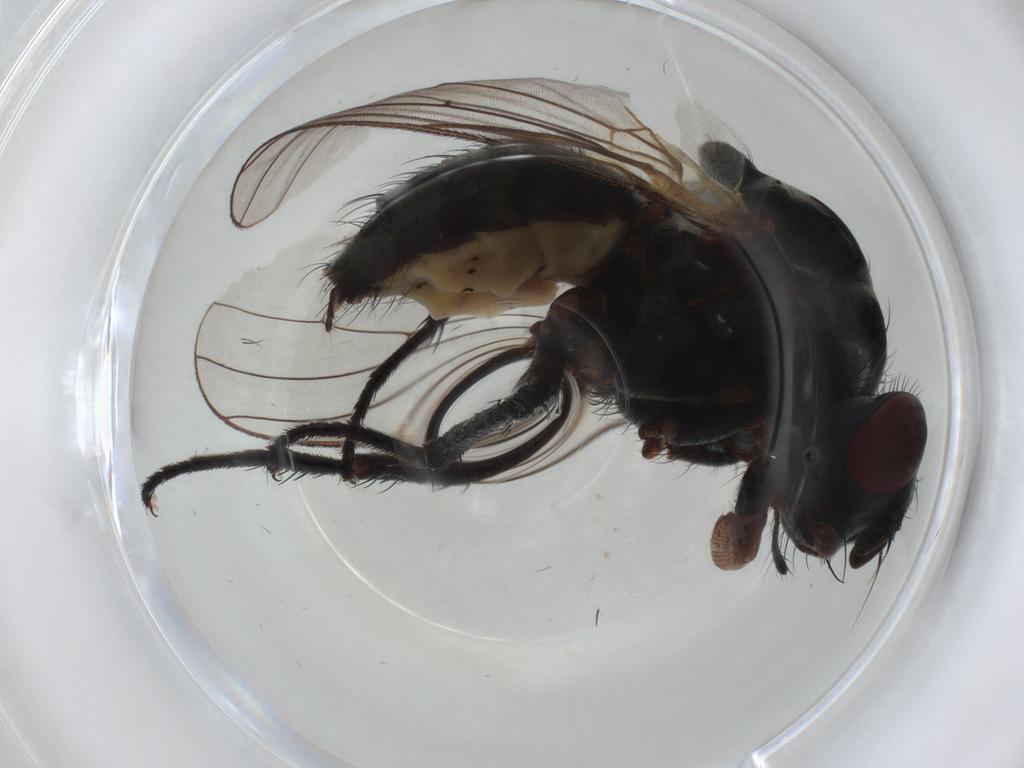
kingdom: Animalia
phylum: Arthropoda
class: Insecta
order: Diptera
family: Anthomyiidae
